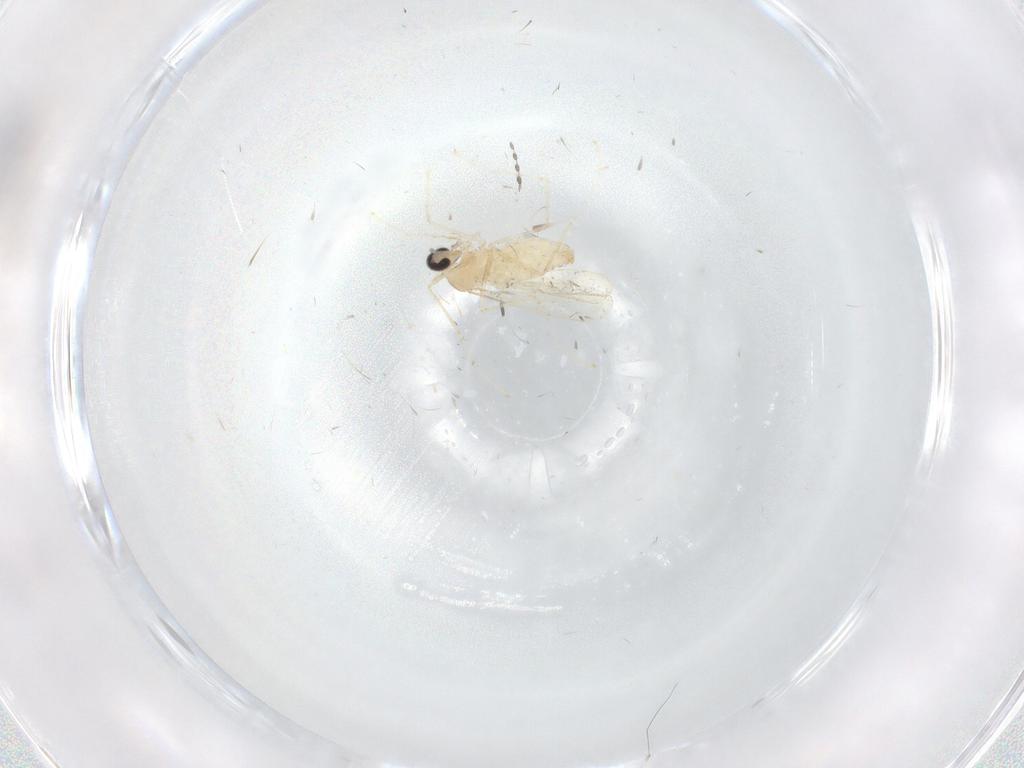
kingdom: Animalia
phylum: Arthropoda
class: Insecta
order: Diptera
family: Cecidomyiidae
